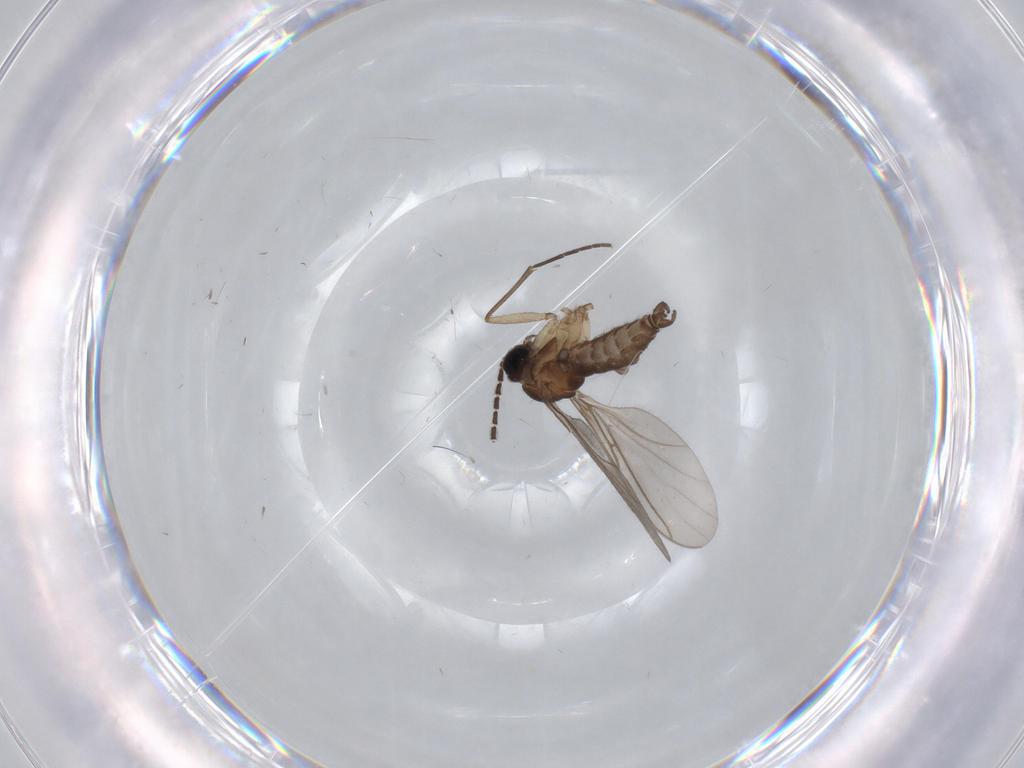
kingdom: Animalia
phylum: Arthropoda
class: Insecta
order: Diptera
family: Sciaridae
